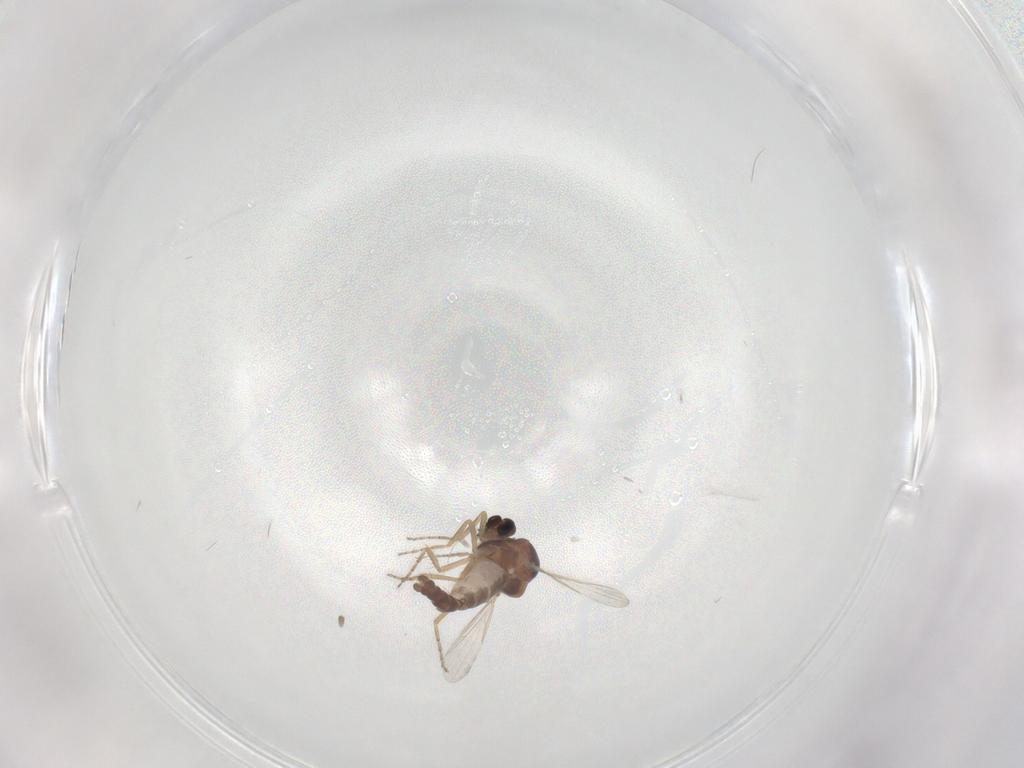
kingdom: Animalia
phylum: Arthropoda
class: Insecta
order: Diptera
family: Ceratopogonidae
